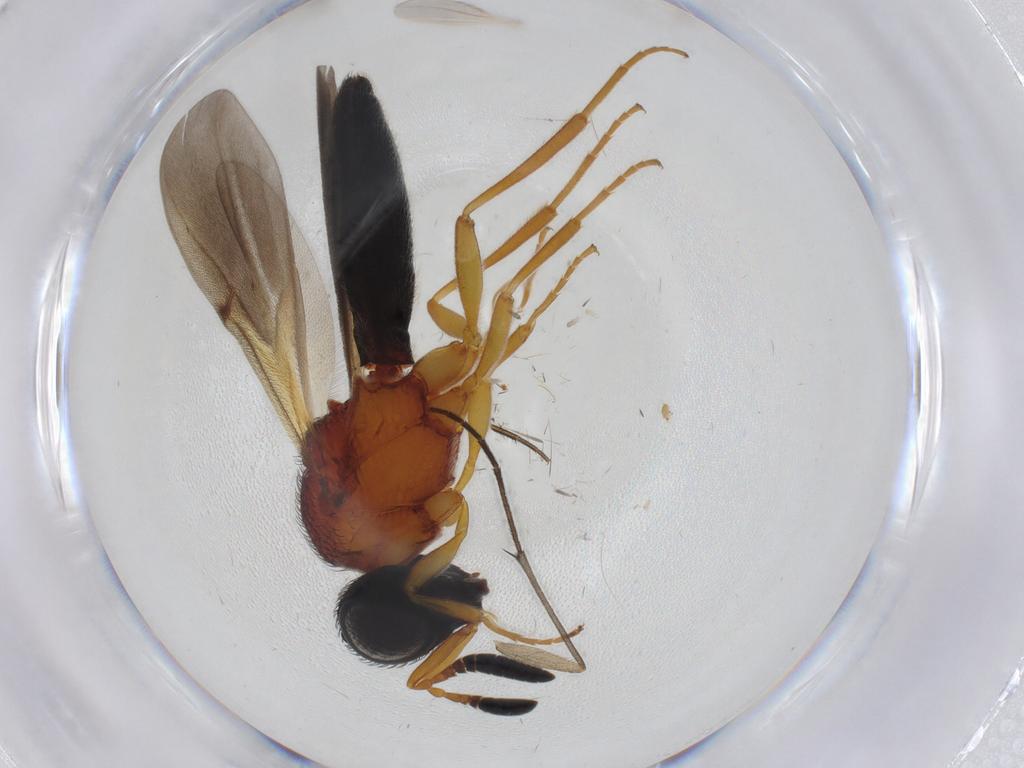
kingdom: Animalia
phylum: Arthropoda
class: Insecta
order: Hymenoptera
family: Scelionidae
